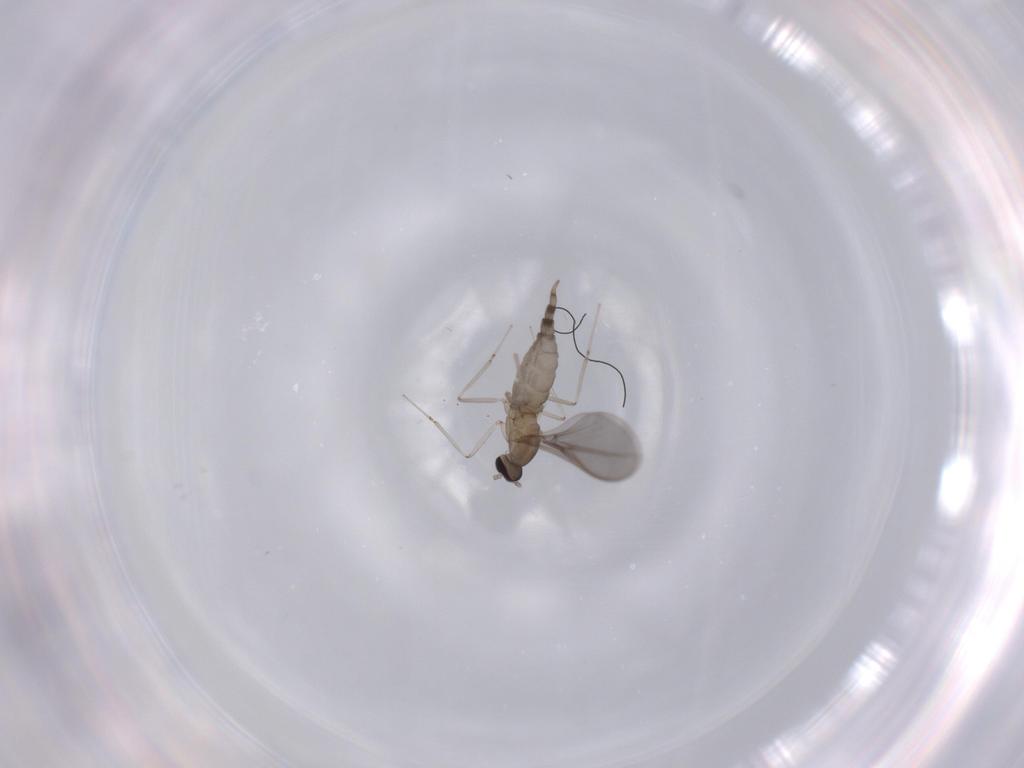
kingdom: Animalia
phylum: Arthropoda
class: Insecta
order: Diptera
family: Cecidomyiidae
